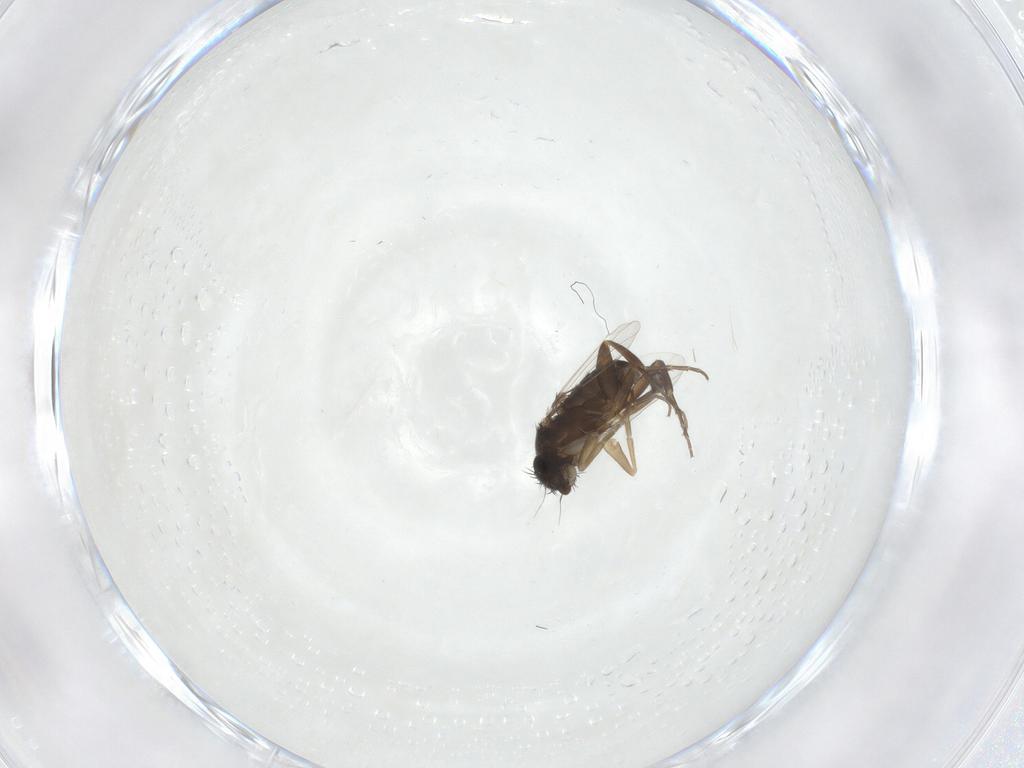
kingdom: Animalia
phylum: Arthropoda
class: Insecta
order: Diptera
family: Phoridae
